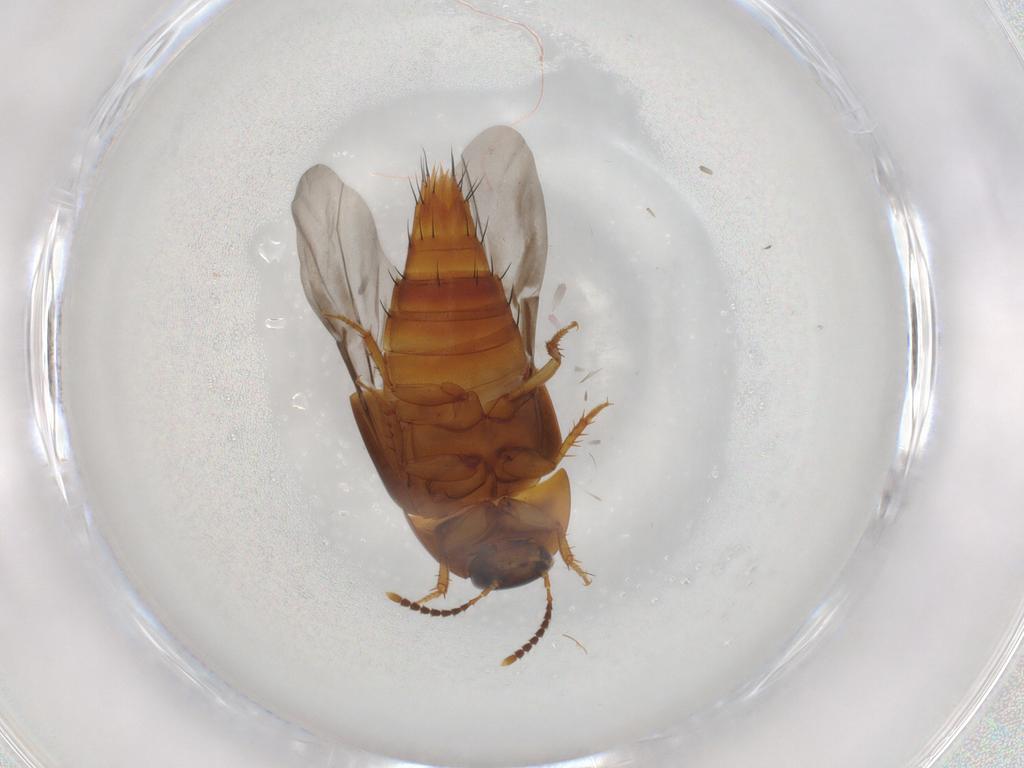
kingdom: Animalia
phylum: Arthropoda
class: Insecta
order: Coleoptera
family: Staphylinidae
